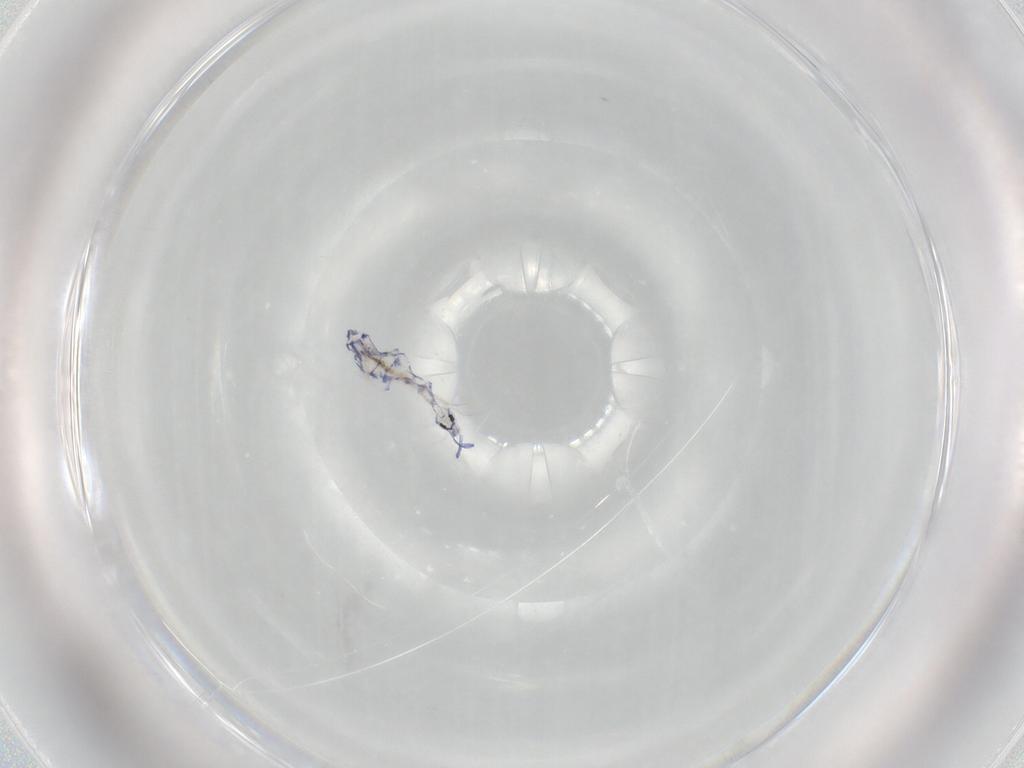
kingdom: Animalia
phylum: Arthropoda
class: Collembola
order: Entomobryomorpha
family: Entomobryidae
